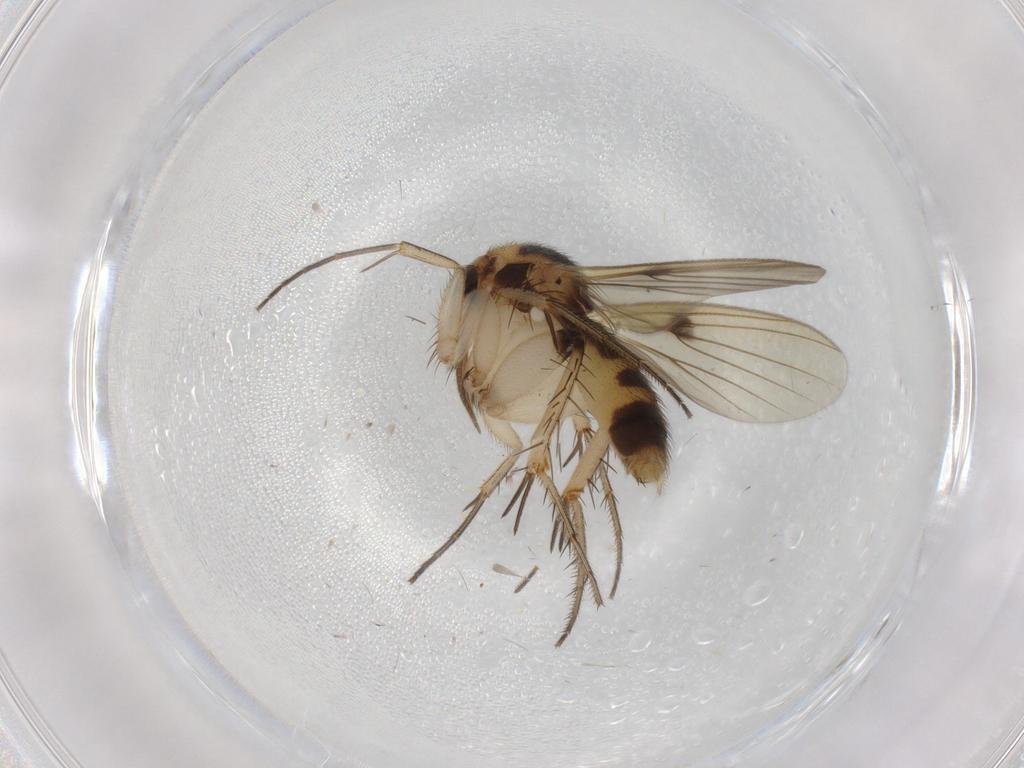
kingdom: Animalia
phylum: Arthropoda
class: Insecta
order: Diptera
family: Mycetophilidae
